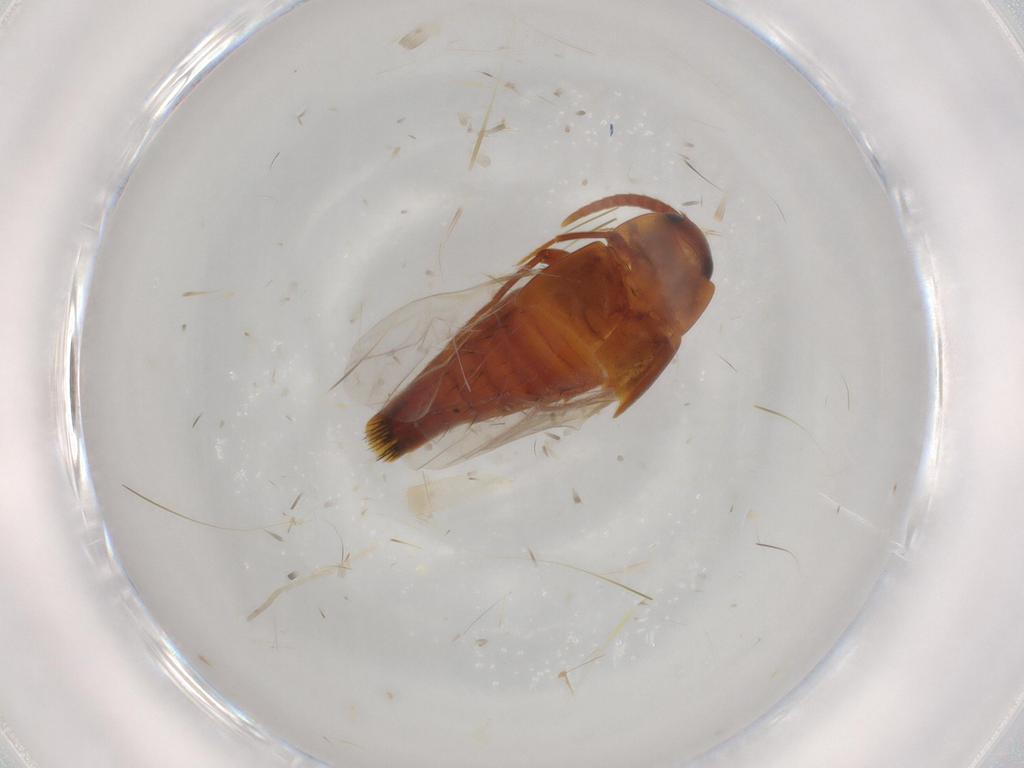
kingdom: Animalia
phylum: Arthropoda
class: Insecta
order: Coleoptera
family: Staphylinidae
